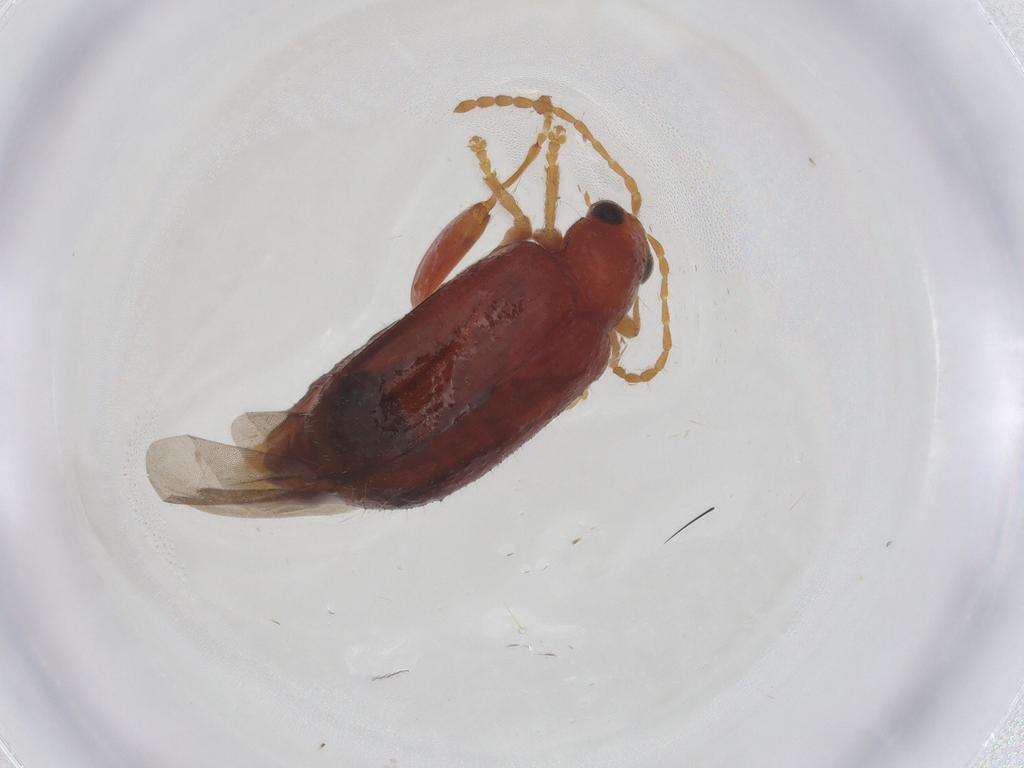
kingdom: Animalia
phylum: Arthropoda
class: Insecta
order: Coleoptera
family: Chrysomelidae
